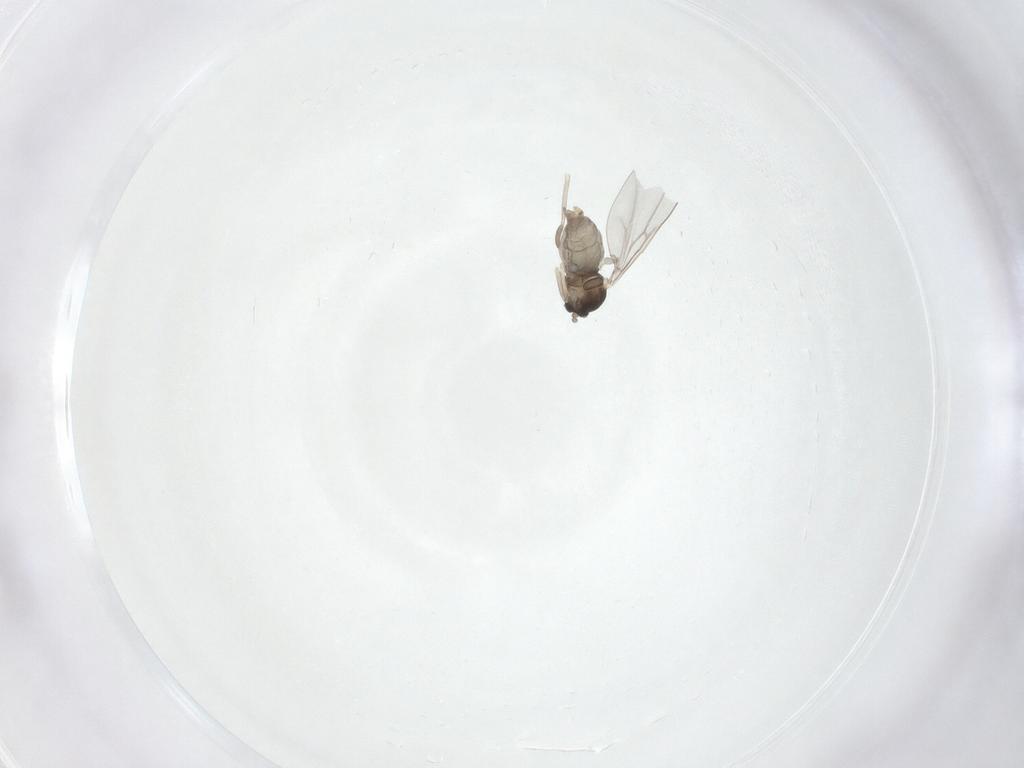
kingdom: Animalia
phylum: Arthropoda
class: Insecta
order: Diptera
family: Cecidomyiidae
